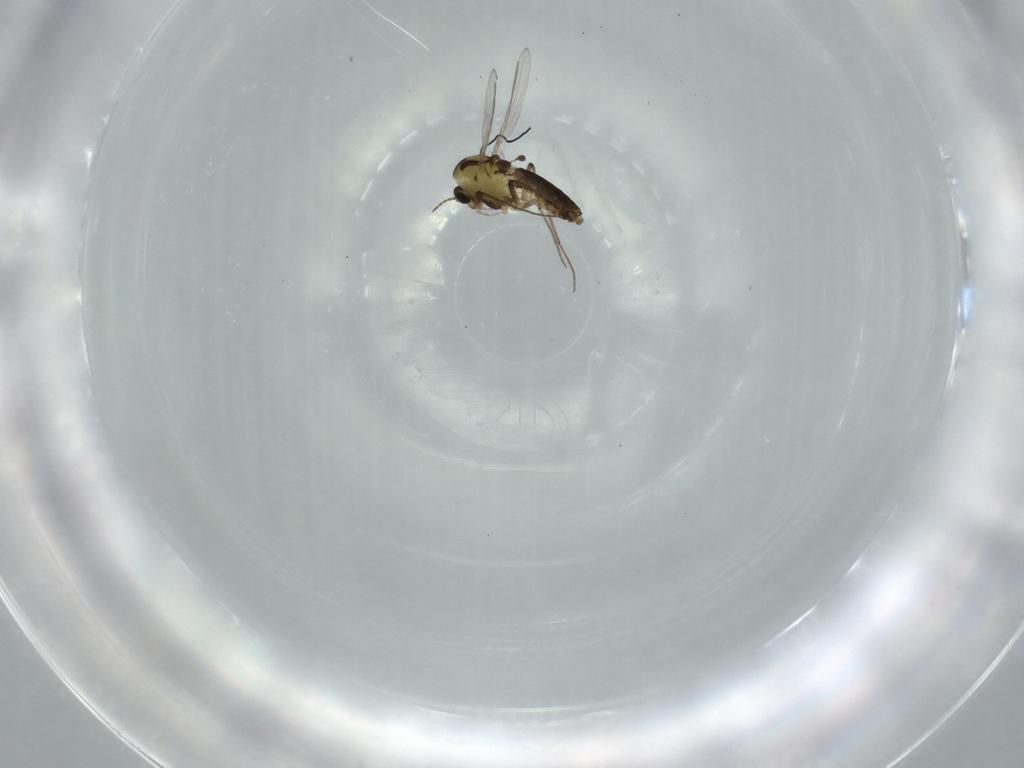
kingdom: Animalia
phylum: Arthropoda
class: Insecta
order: Diptera
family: Chironomidae
